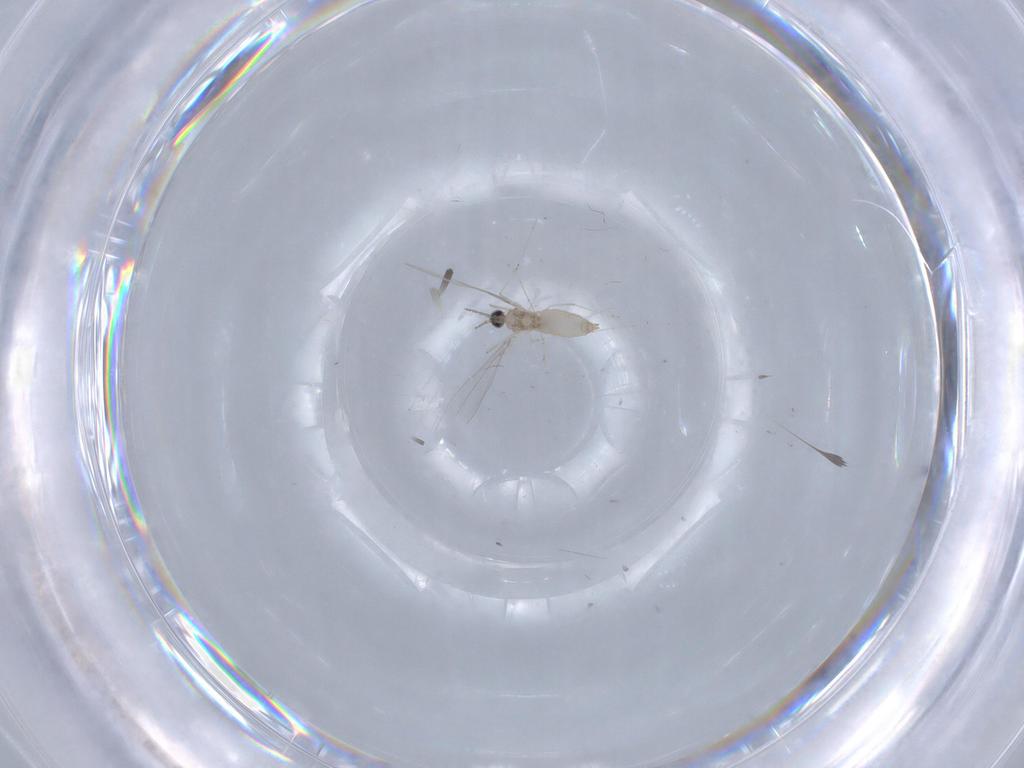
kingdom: Animalia
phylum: Arthropoda
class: Insecta
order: Diptera
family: Cecidomyiidae
